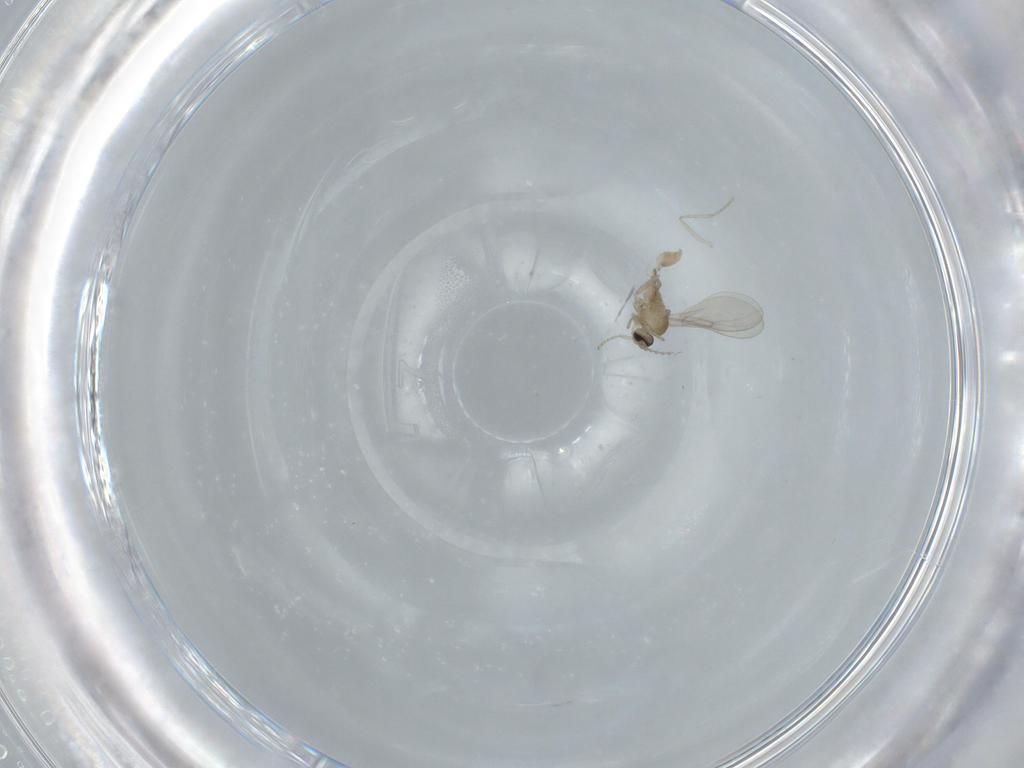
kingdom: Animalia
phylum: Arthropoda
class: Insecta
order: Diptera
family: Cecidomyiidae
